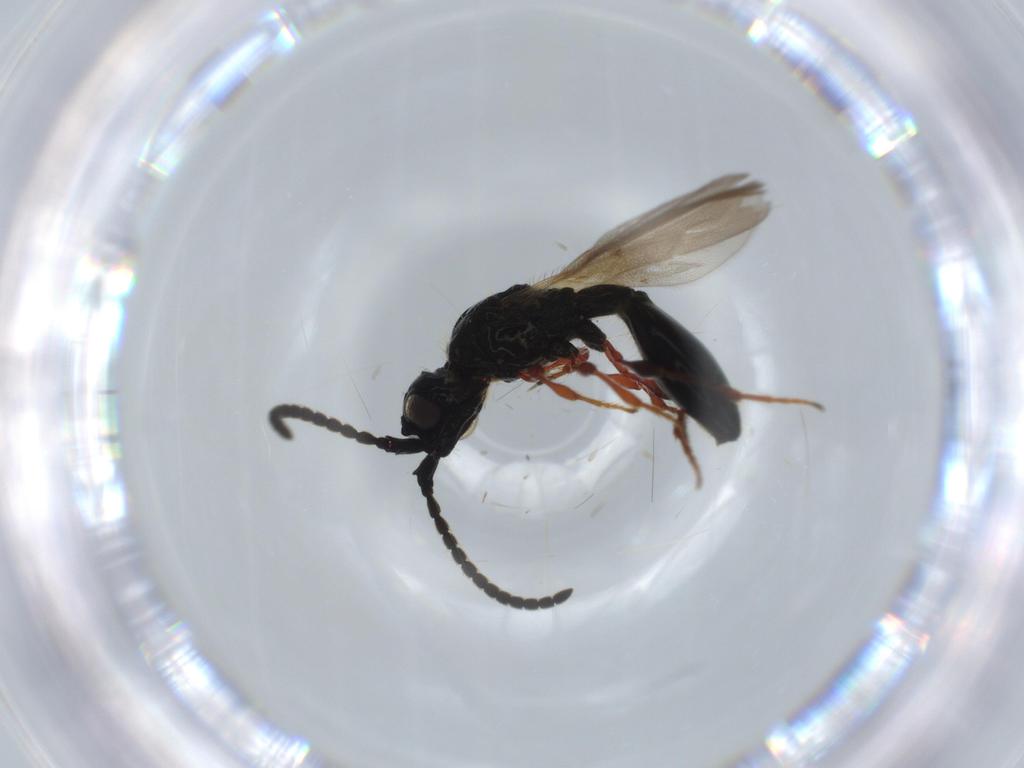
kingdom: Animalia
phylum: Arthropoda
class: Insecta
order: Hymenoptera
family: Diapriidae
